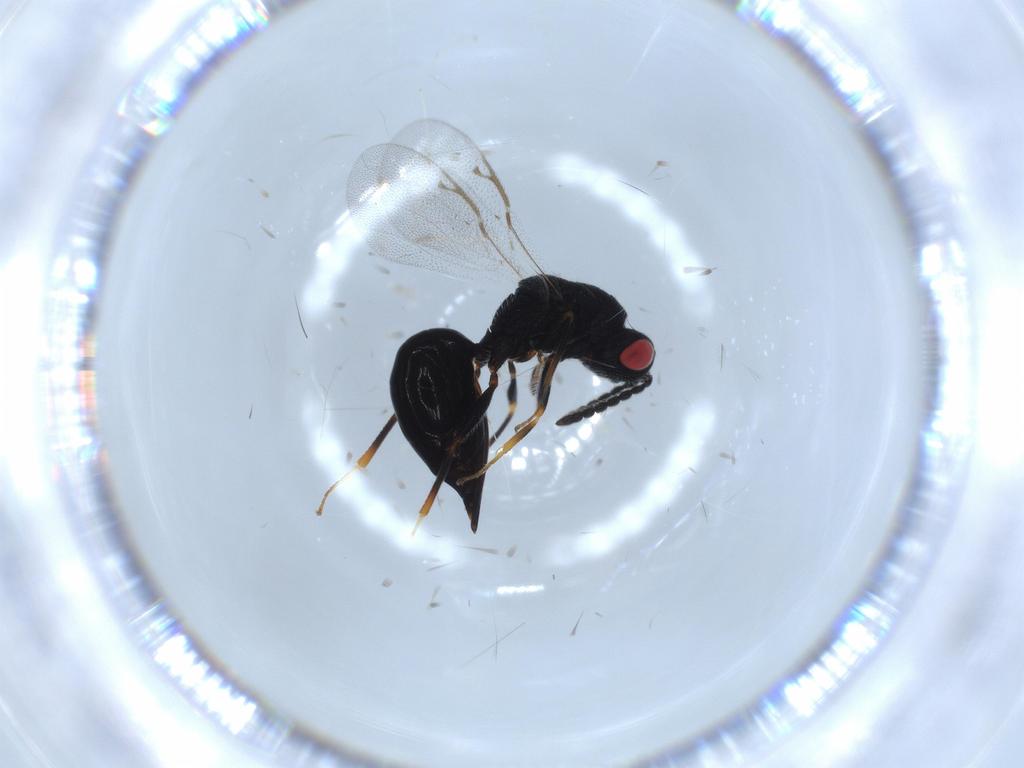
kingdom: Animalia
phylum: Arthropoda
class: Insecta
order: Hymenoptera
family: Eurytomidae
